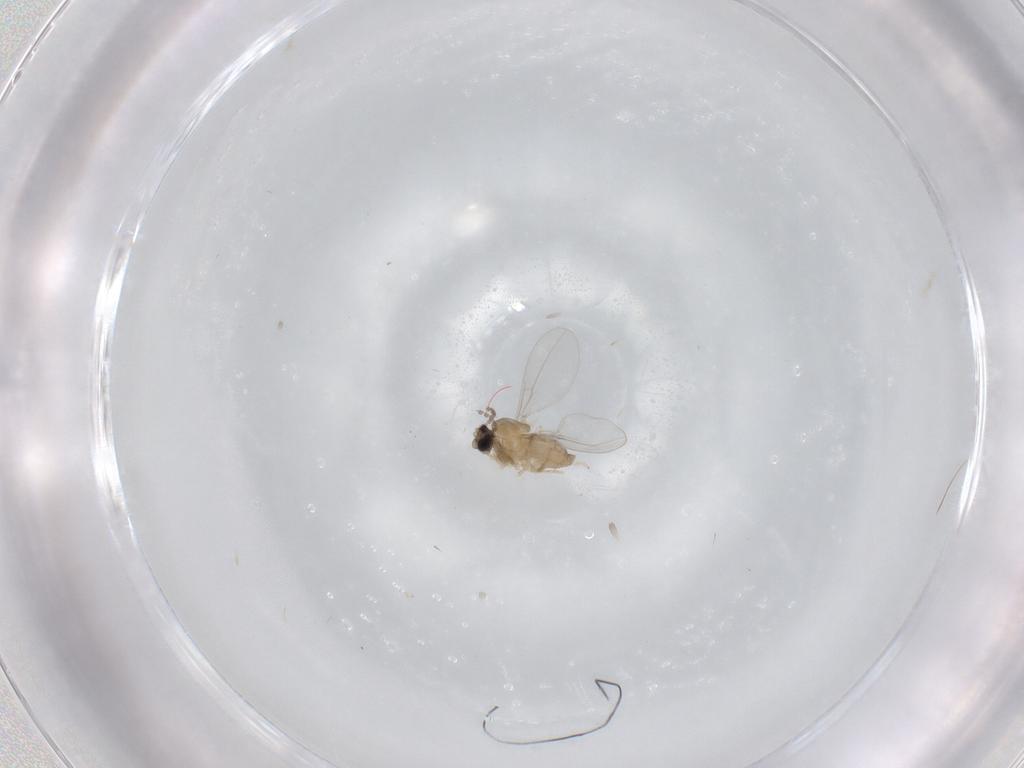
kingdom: Animalia
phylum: Arthropoda
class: Insecta
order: Diptera
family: Cecidomyiidae
